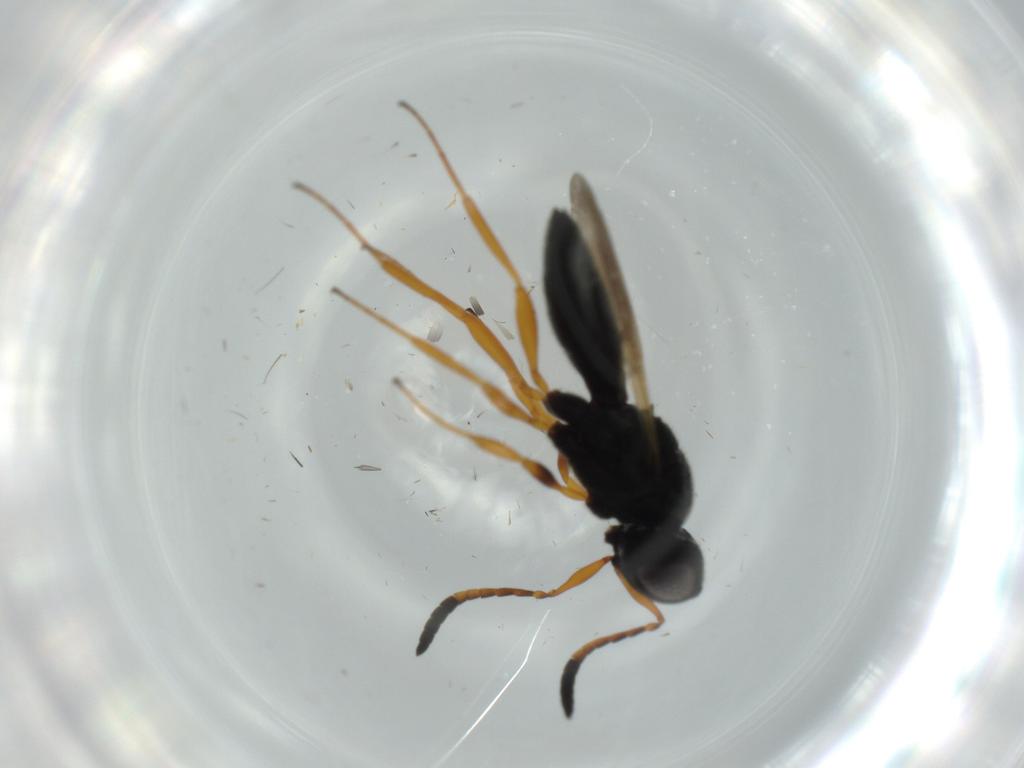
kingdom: Animalia
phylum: Arthropoda
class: Insecta
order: Hymenoptera
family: Scelionidae
